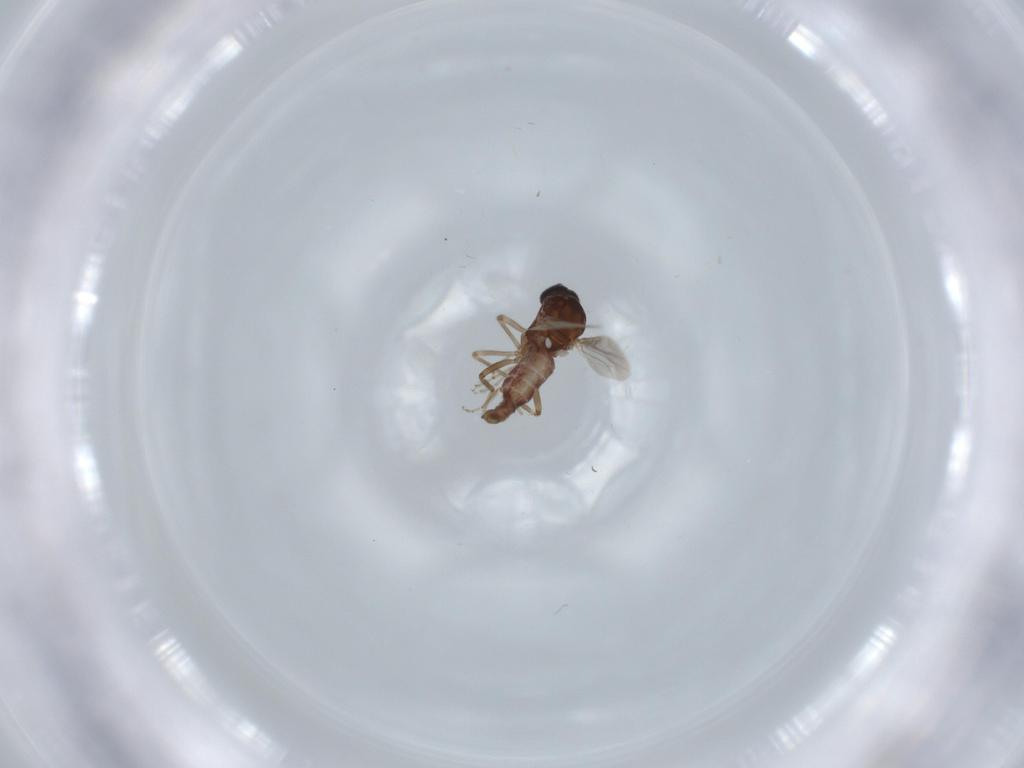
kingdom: Animalia
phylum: Arthropoda
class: Insecta
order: Diptera
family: Ceratopogonidae
